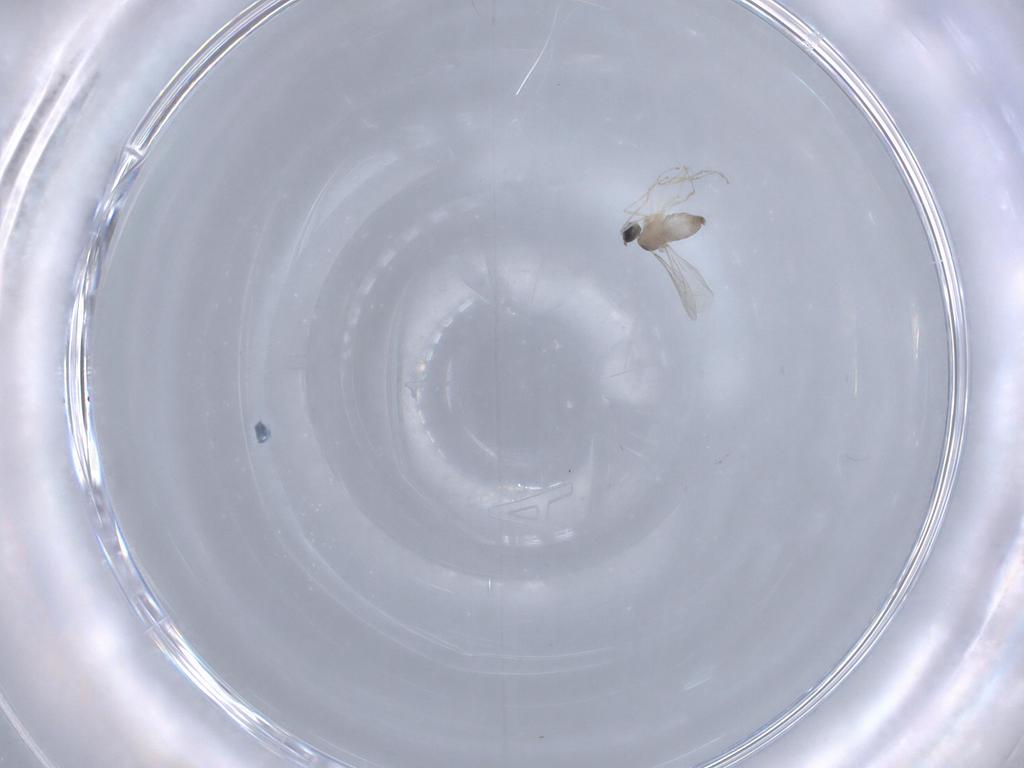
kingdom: Animalia
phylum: Arthropoda
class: Insecta
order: Diptera
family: Cecidomyiidae
